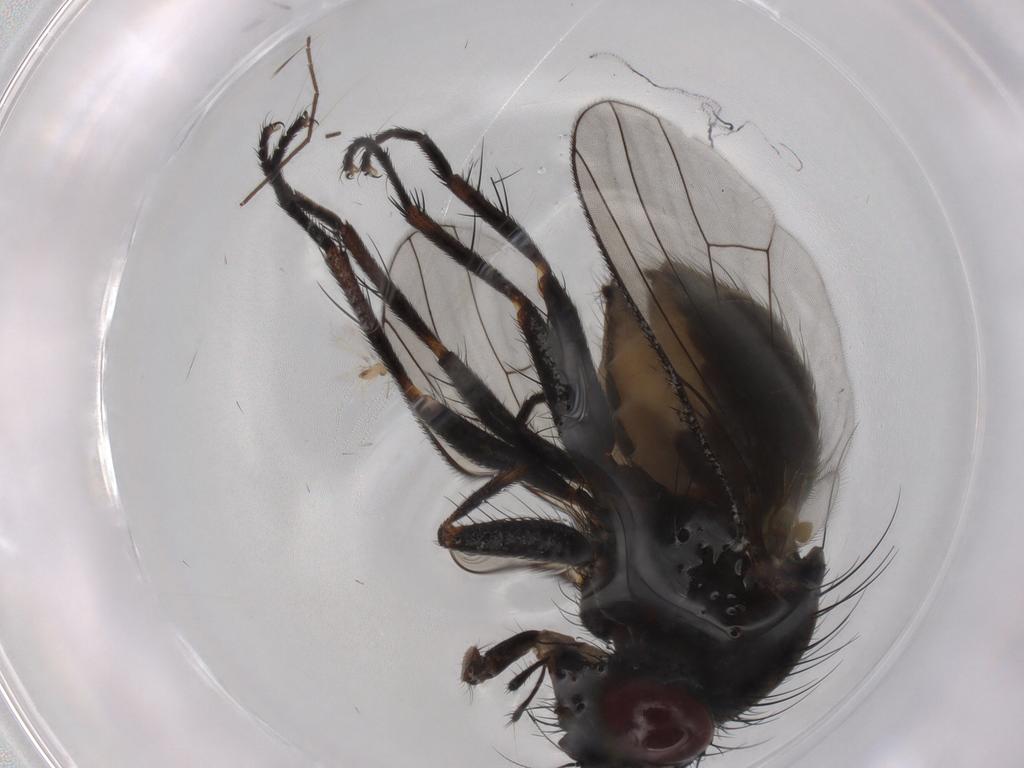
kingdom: Animalia
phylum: Arthropoda
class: Insecta
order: Diptera
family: Muscidae
